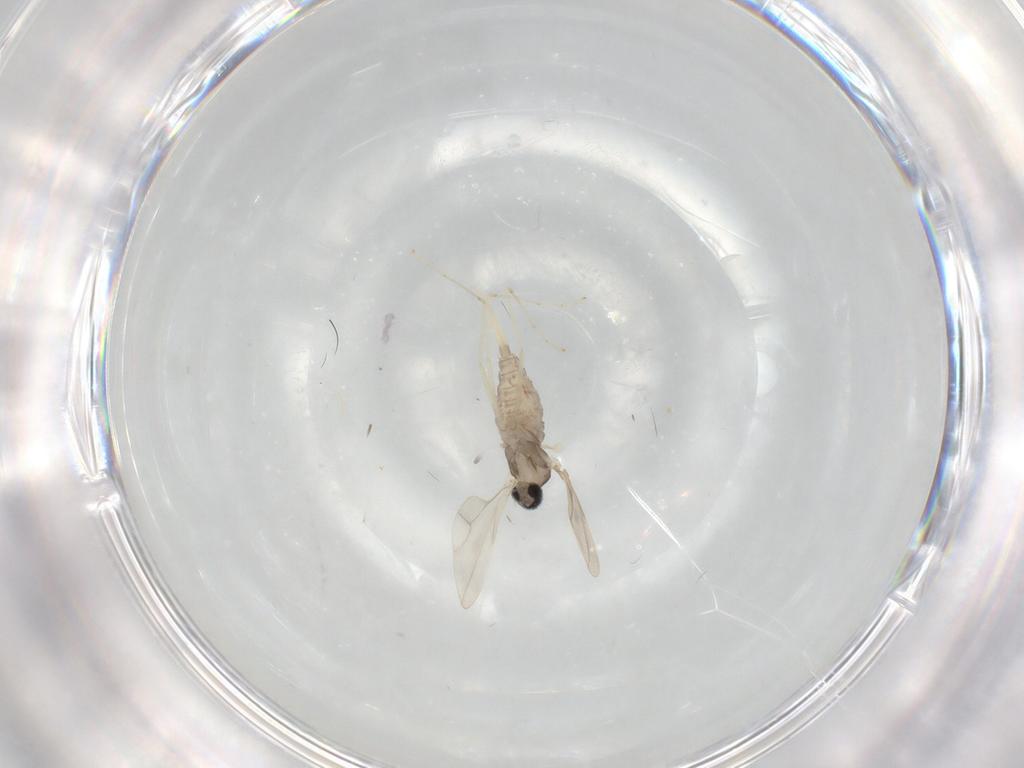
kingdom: Animalia
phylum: Arthropoda
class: Insecta
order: Diptera
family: Cecidomyiidae
